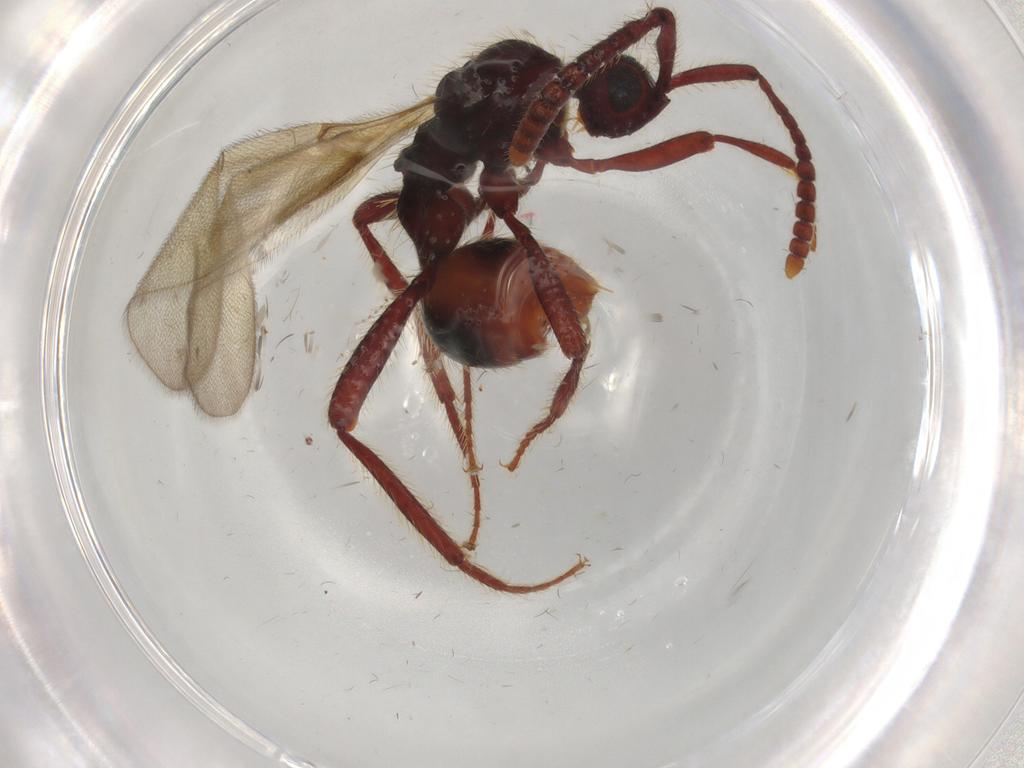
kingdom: Animalia
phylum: Arthropoda
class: Insecta
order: Hymenoptera
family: Diapriidae
